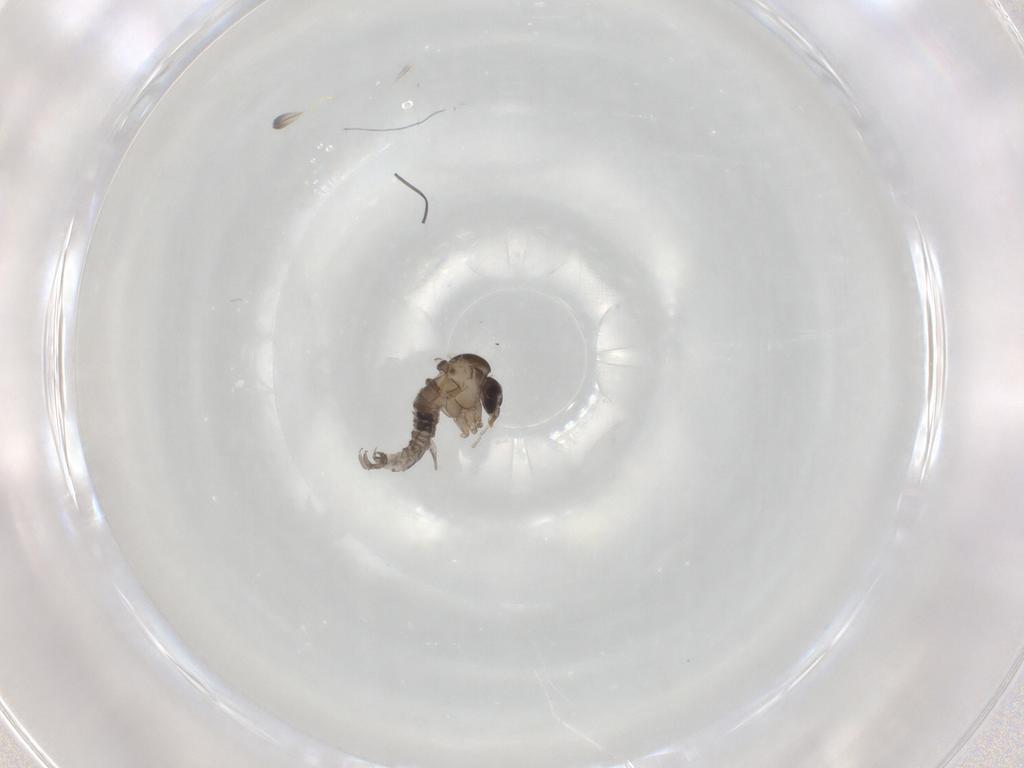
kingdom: Animalia
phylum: Arthropoda
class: Insecta
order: Diptera
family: Psychodidae
